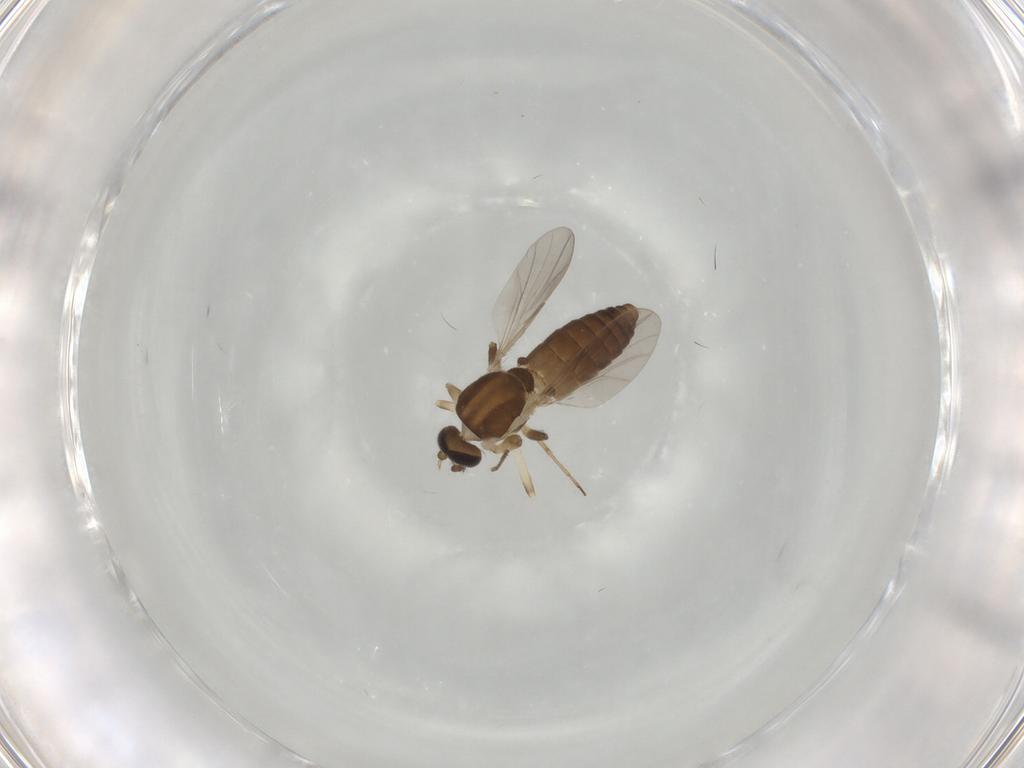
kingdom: Animalia
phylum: Arthropoda
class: Insecta
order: Diptera
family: Ceratopogonidae
